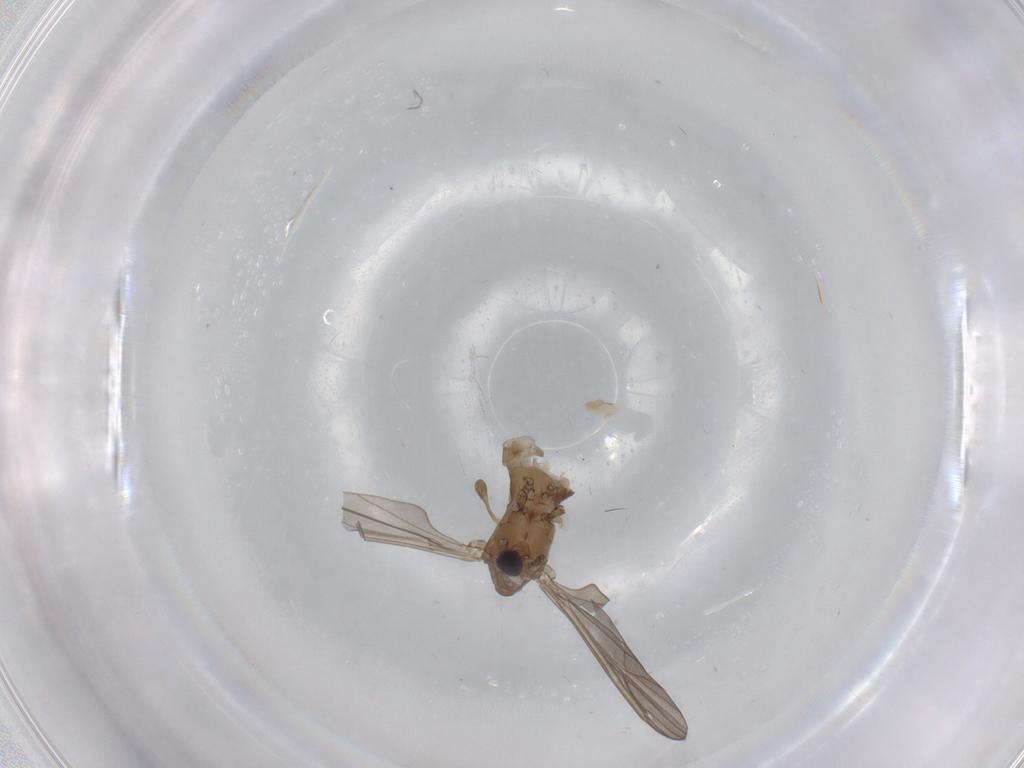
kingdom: Animalia
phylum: Arthropoda
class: Insecta
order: Diptera
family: Limoniidae
